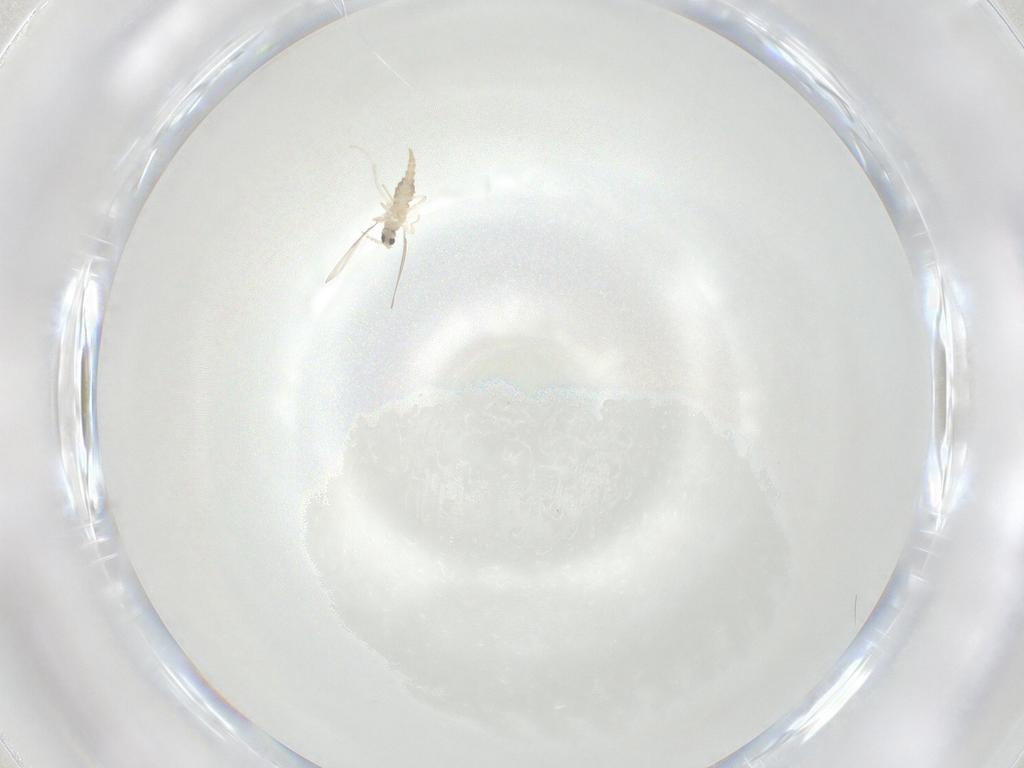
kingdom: Animalia
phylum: Arthropoda
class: Insecta
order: Diptera
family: Cecidomyiidae
